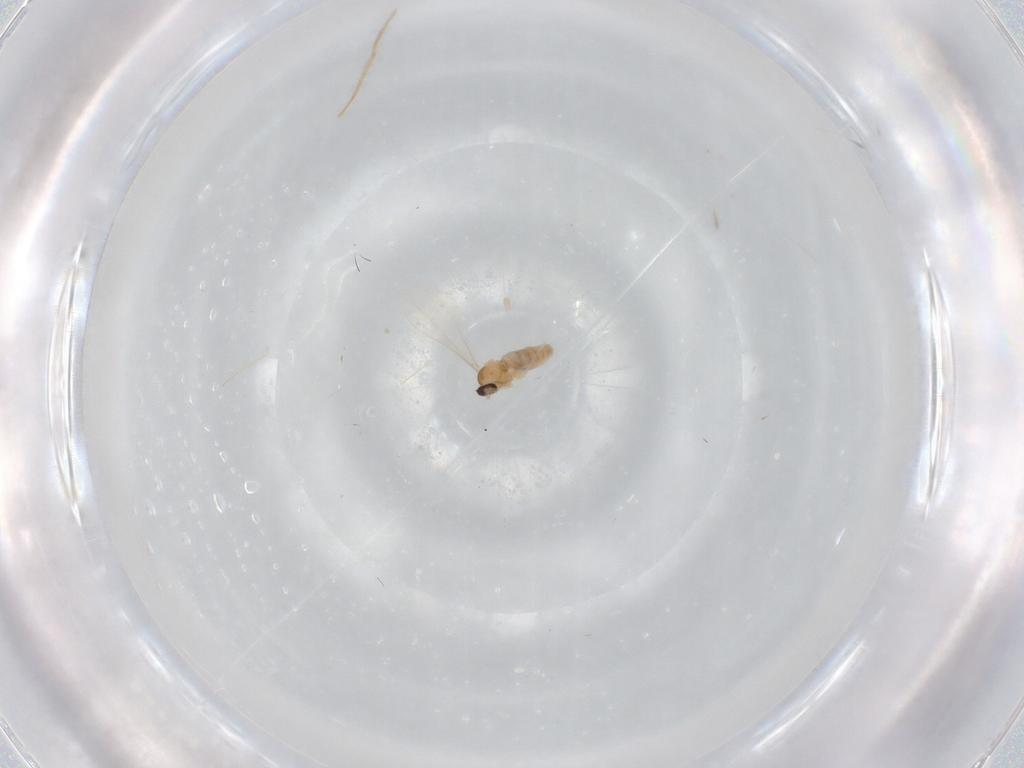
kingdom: Animalia
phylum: Arthropoda
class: Insecta
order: Diptera
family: Cecidomyiidae
